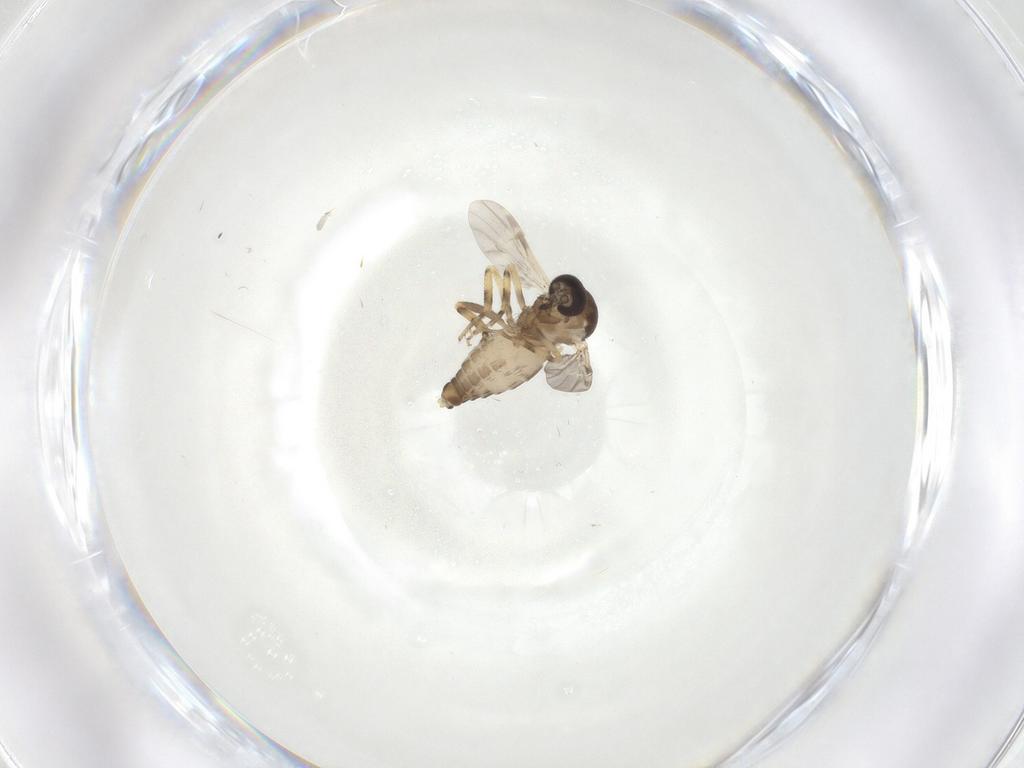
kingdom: Animalia
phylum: Arthropoda
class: Insecta
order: Diptera
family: Ceratopogonidae
